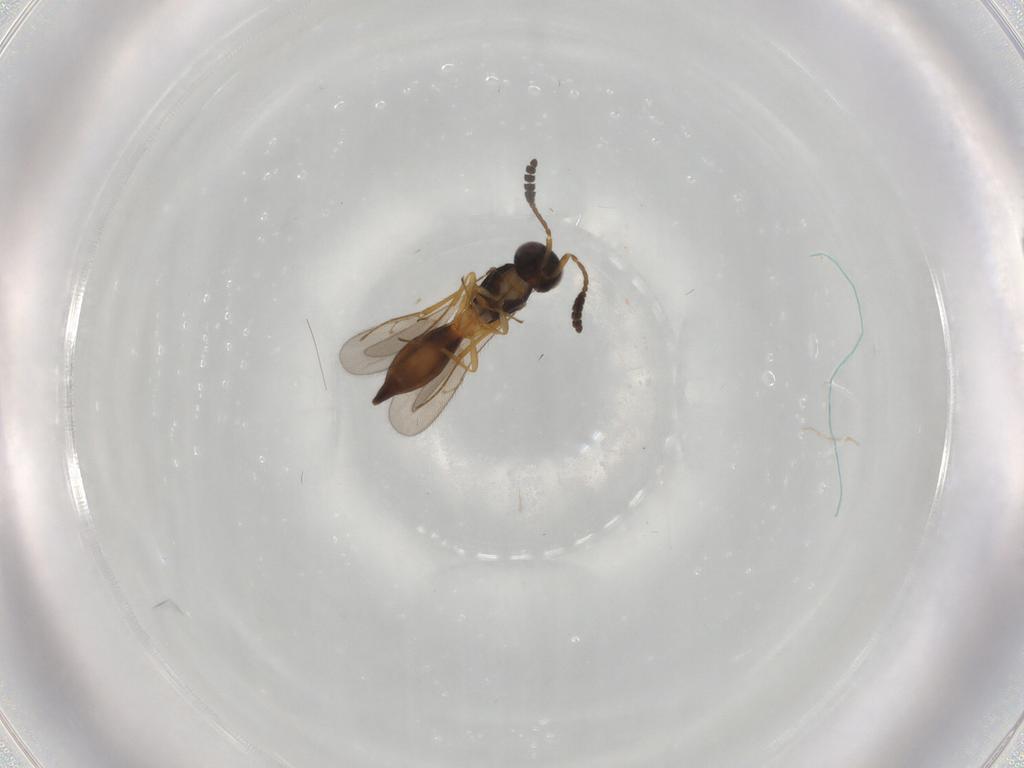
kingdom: Animalia
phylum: Arthropoda
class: Insecta
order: Hymenoptera
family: Scelionidae
